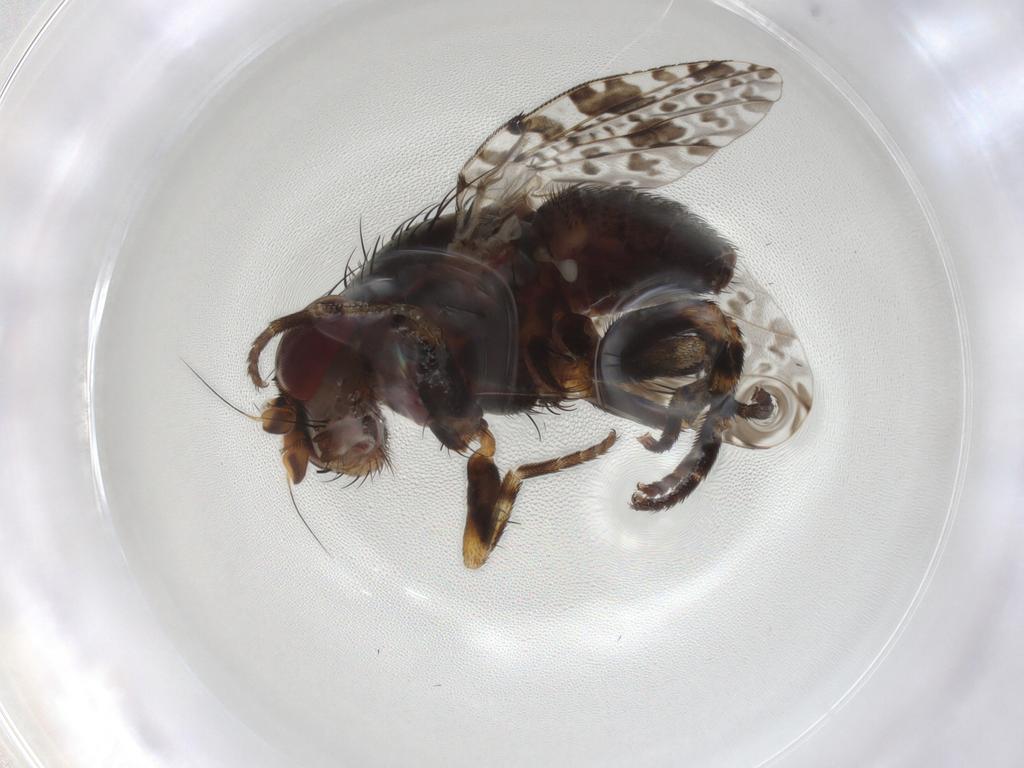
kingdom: Animalia
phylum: Arthropoda
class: Insecta
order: Diptera
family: Odiniidae
